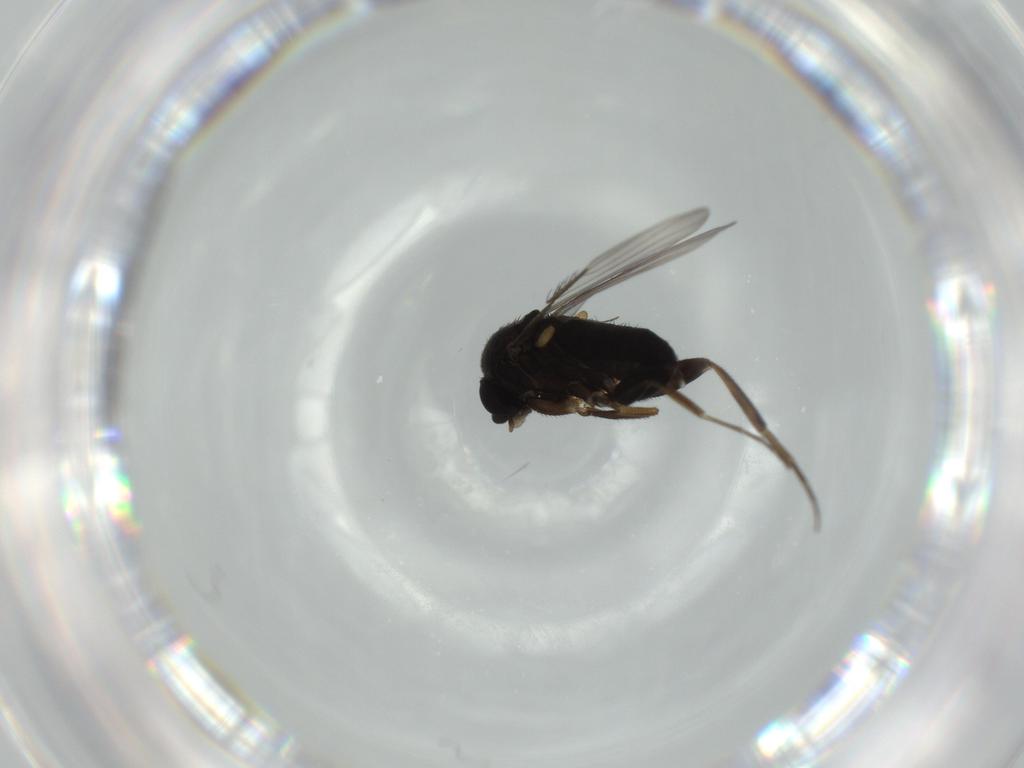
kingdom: Animalia
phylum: Arthropoda
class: Insecta
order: Diptera
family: Phoridae
